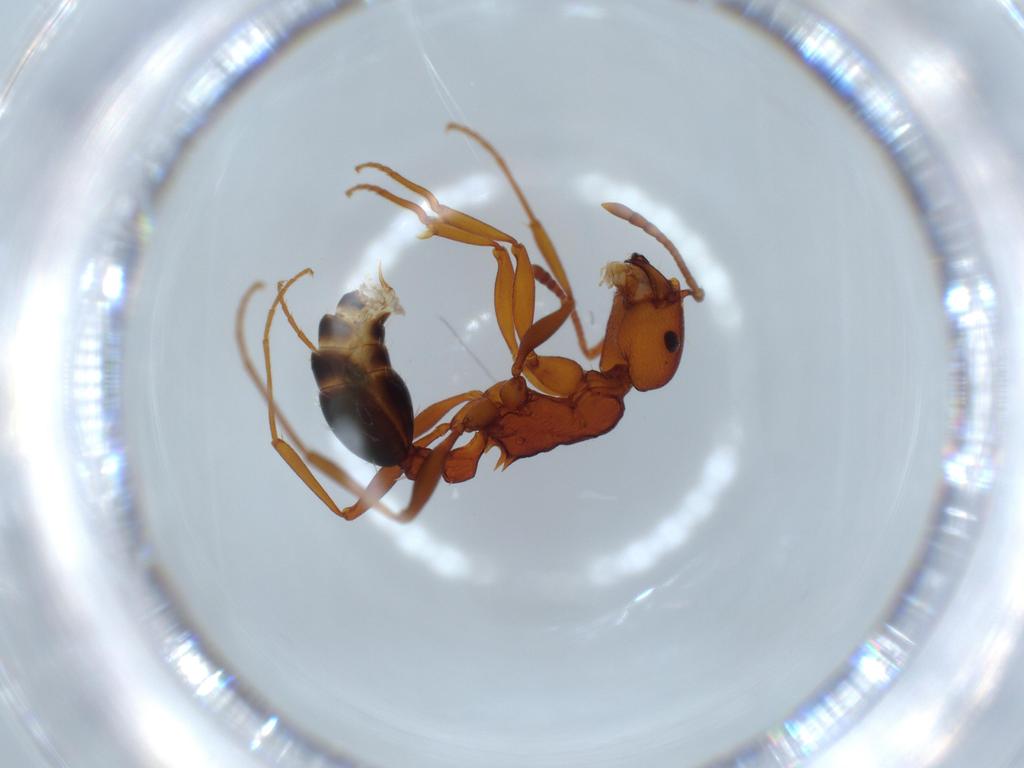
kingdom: Animalia
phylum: Arthropoda
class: Insecta
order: Hymenoptera
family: Formicidae
